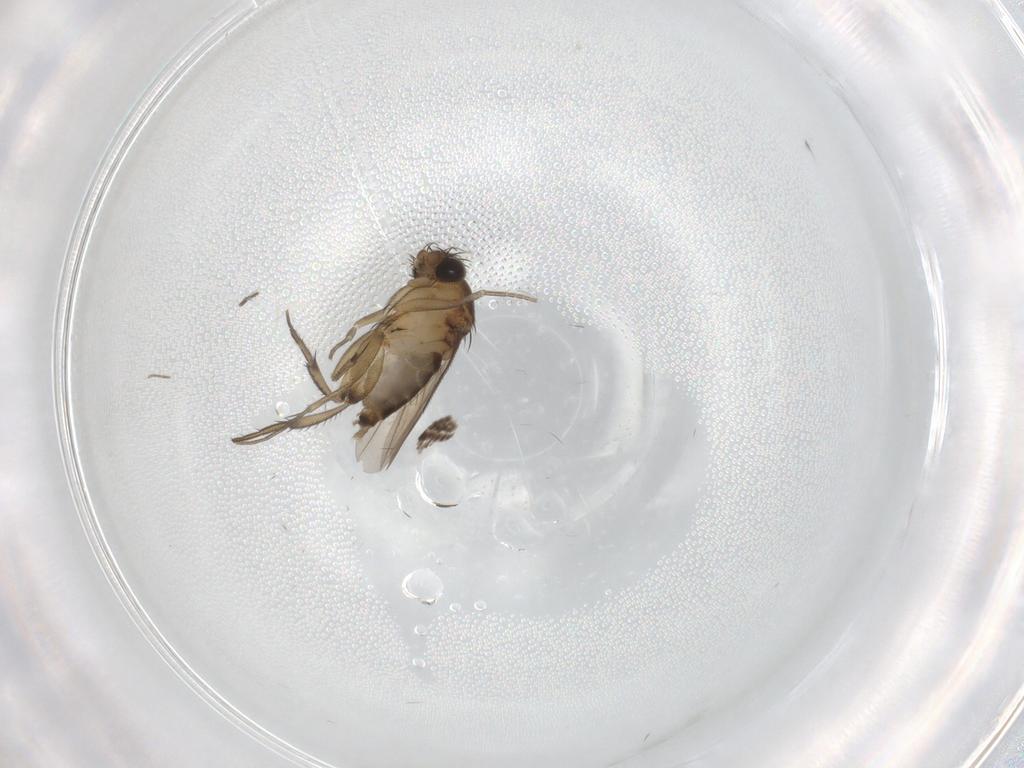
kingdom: Animalia
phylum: Arthropoda
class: Insecta
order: Diptera
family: Phoridae
